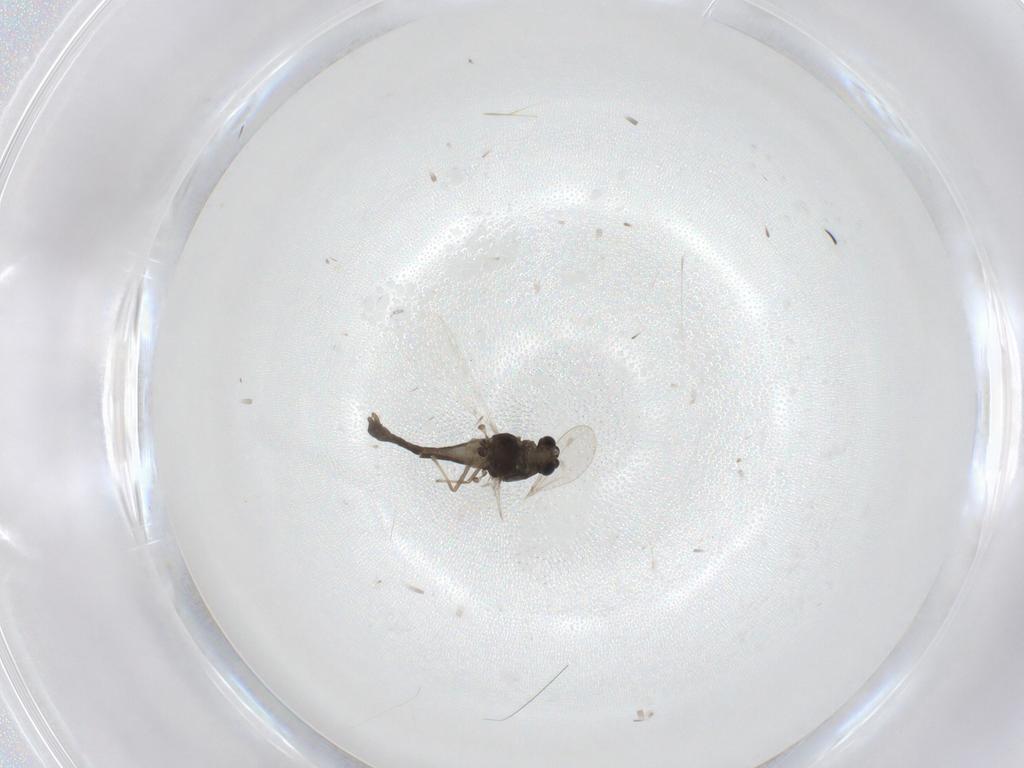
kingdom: Animalia
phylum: Arthropoda
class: Insecta
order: Diptera
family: Chironomidae
